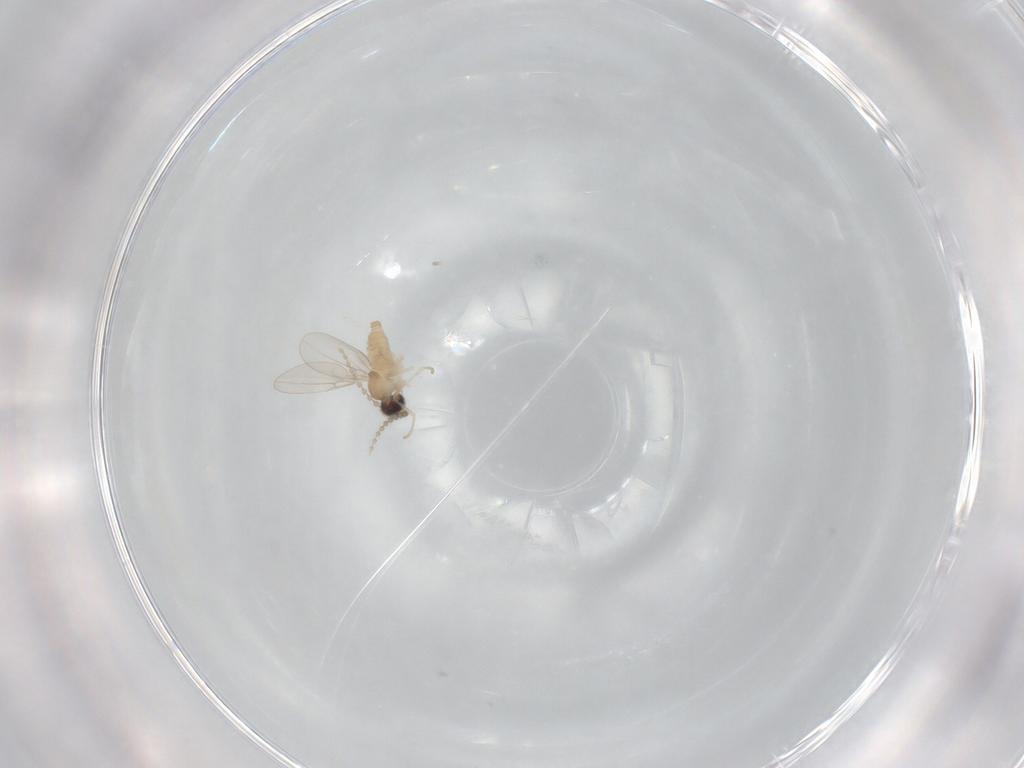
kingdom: Animalia
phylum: Arthropoda
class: Insecta
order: Diptera
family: Cecidomyiidae
